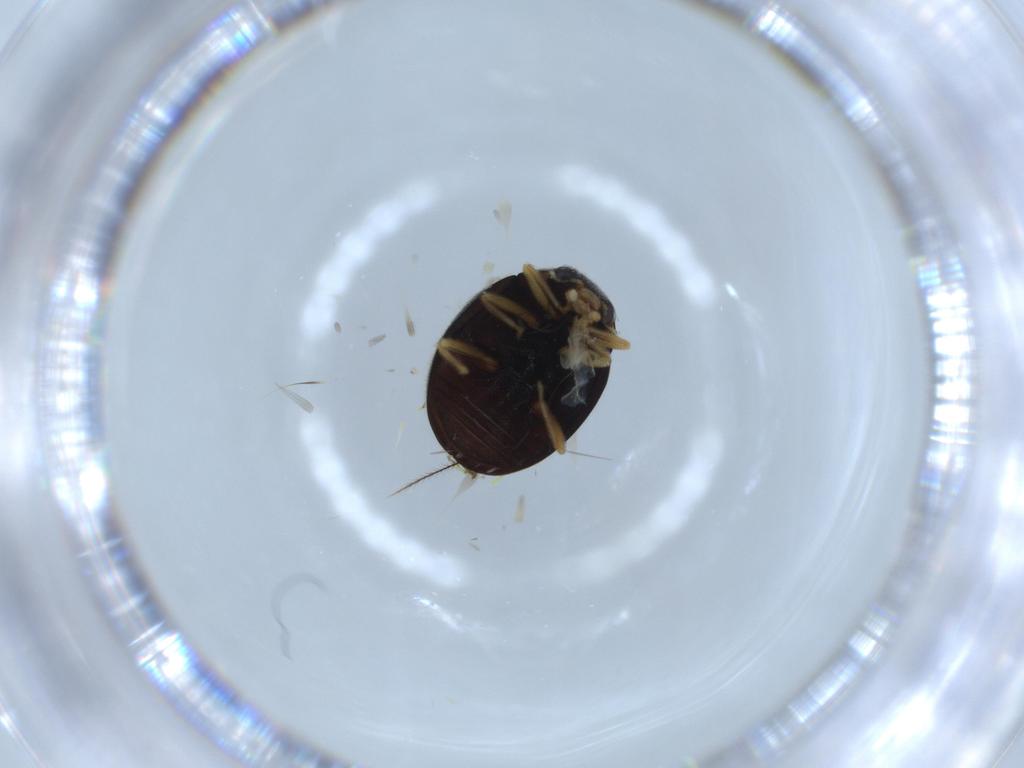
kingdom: Animalia
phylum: Arthropoda
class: Insecta
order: Coleoptera
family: Coccinellidae
